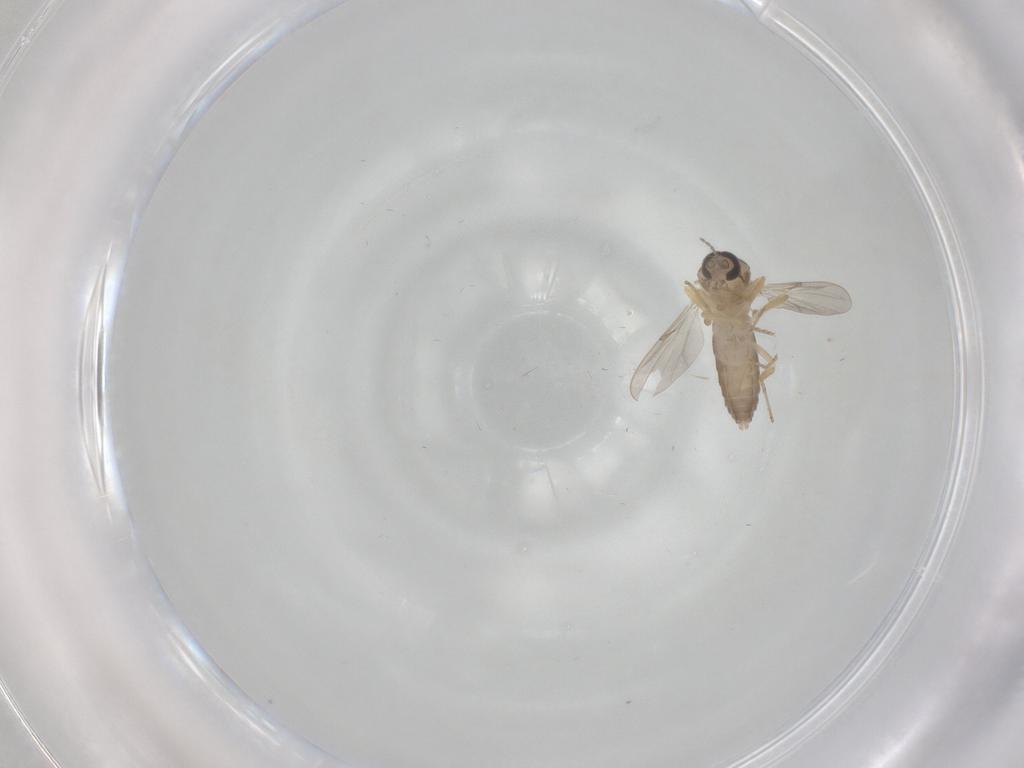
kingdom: Animalia
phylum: Arthropoda
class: Insecta
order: Diptera
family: Ceratopogonidae
